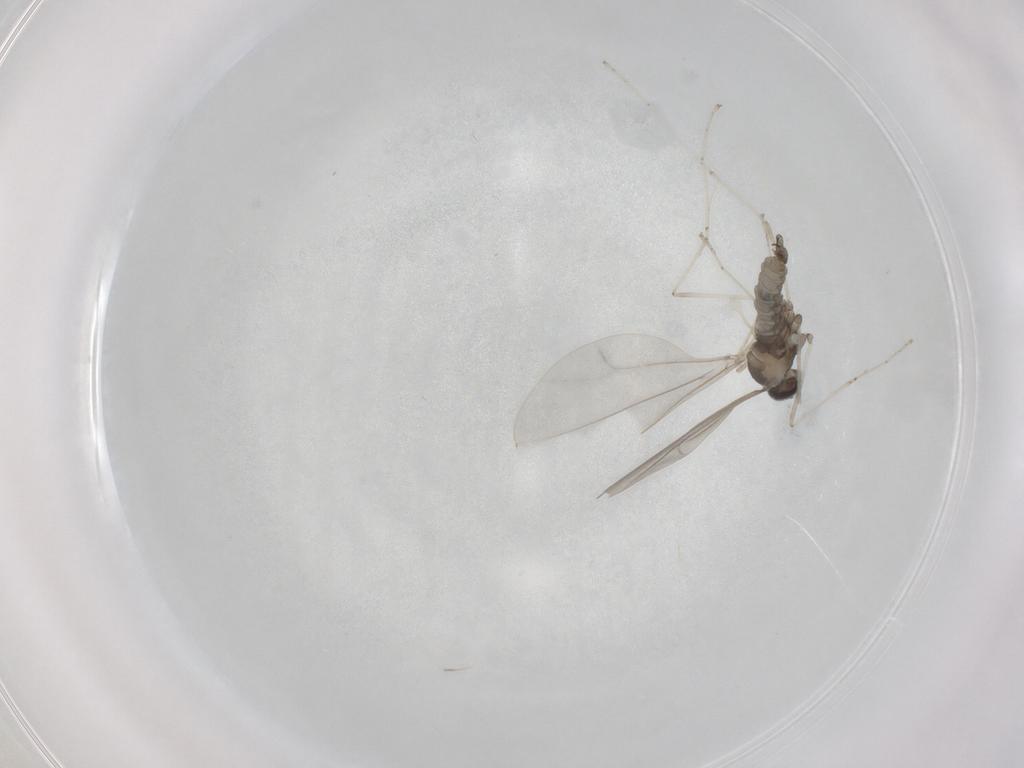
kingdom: Animalia
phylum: Arthropoda
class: Insecta
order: Diptera
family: Cecidomyiidae
